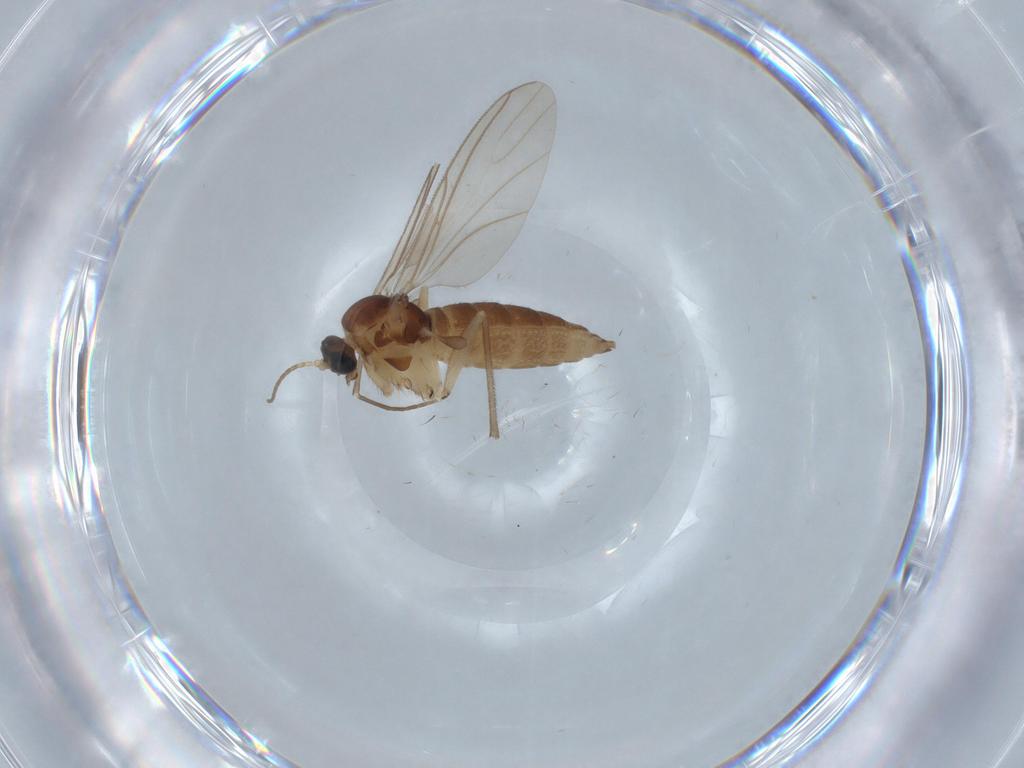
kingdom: Animalia
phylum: Arthropoda
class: Insecta
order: Diptera
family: Sciaridae
